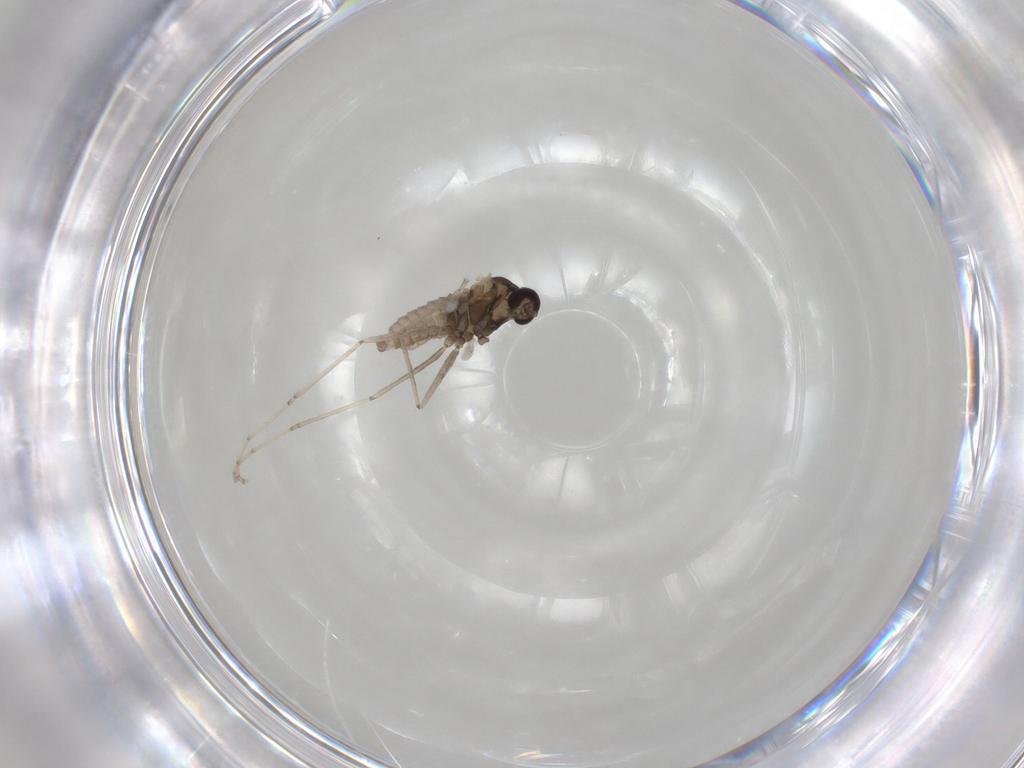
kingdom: Animalia
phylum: Arthropoda
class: Insecta
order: Diptera
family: Cecidomyiidae
